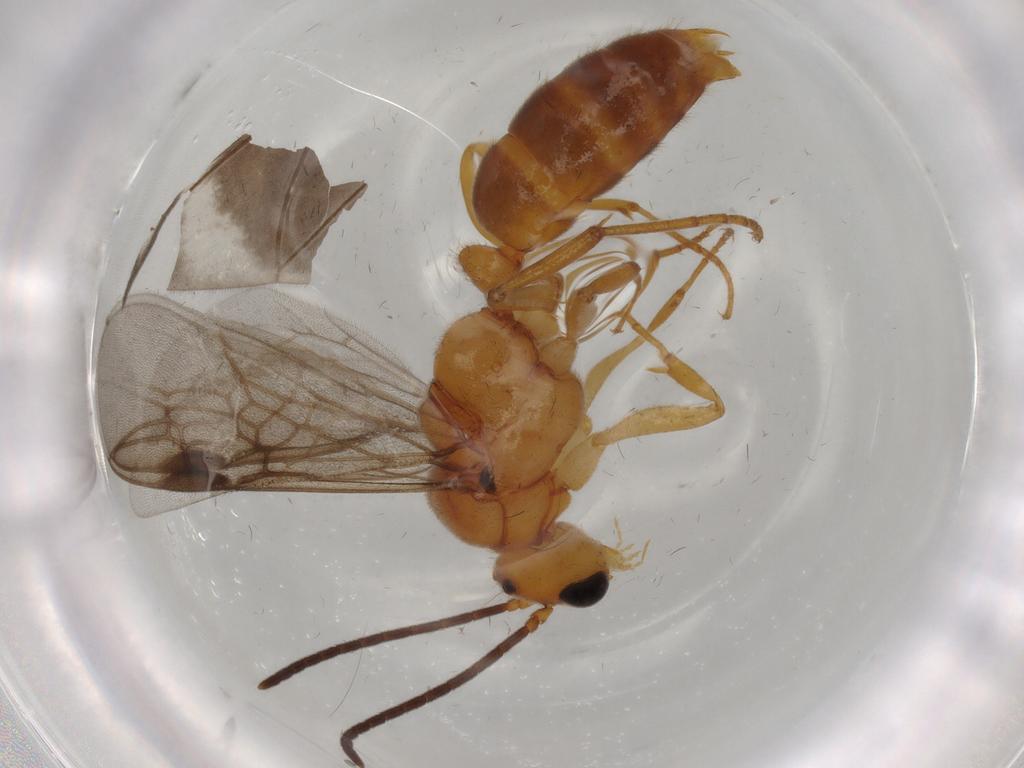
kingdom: Animalia
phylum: Arthropoda
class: Insecta
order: Hymenoptera
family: Formicidae
